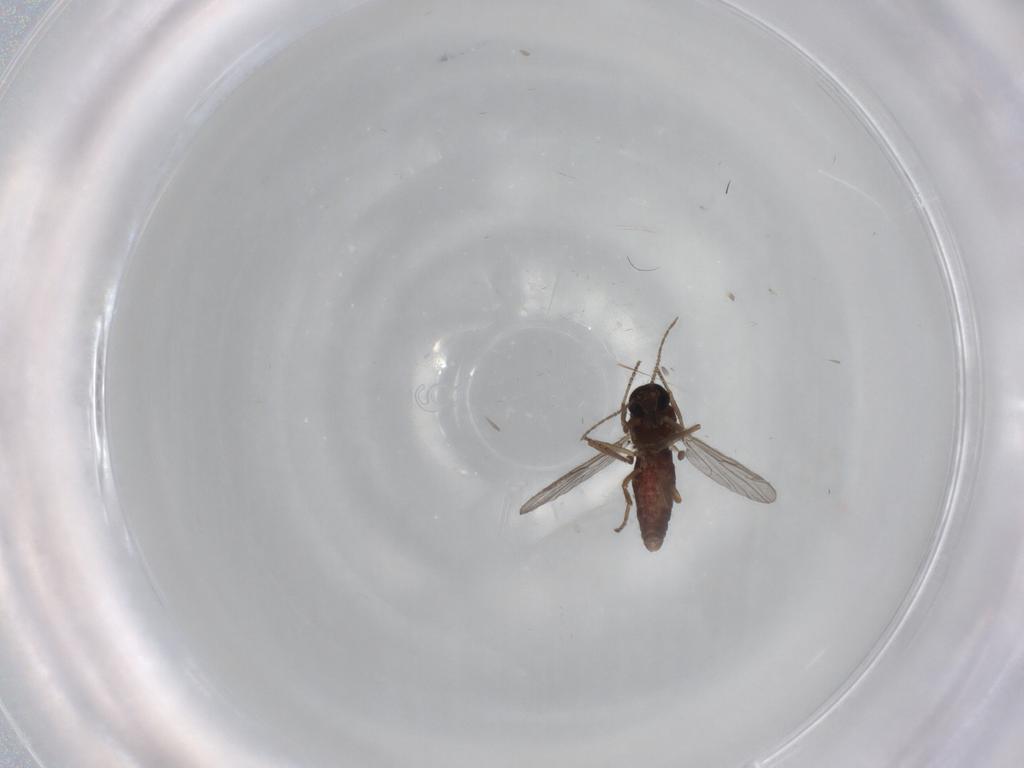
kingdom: Animalia
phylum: Arthropoda
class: Insecta
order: Diptera
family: Ceratopogonidae
